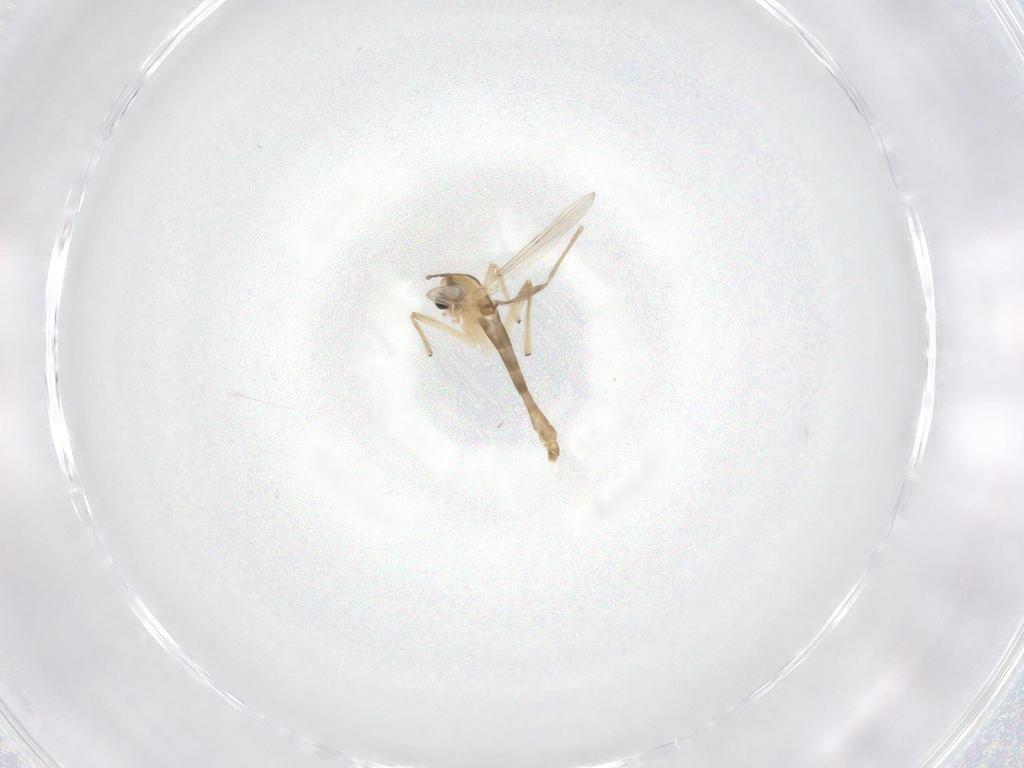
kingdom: Animalia
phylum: Arthropoda
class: Insecta
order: Diptera
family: Chironomidae
